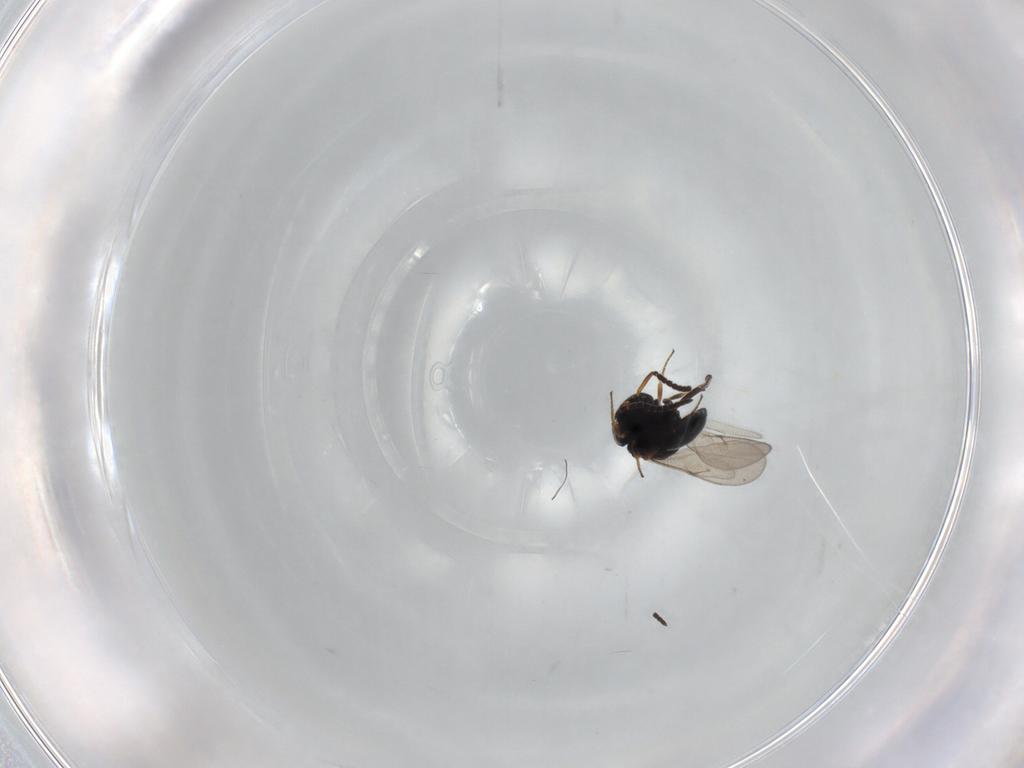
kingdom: Animalia
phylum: Arthropoda
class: Insecta
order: Hymenoptera
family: Scelionidae
